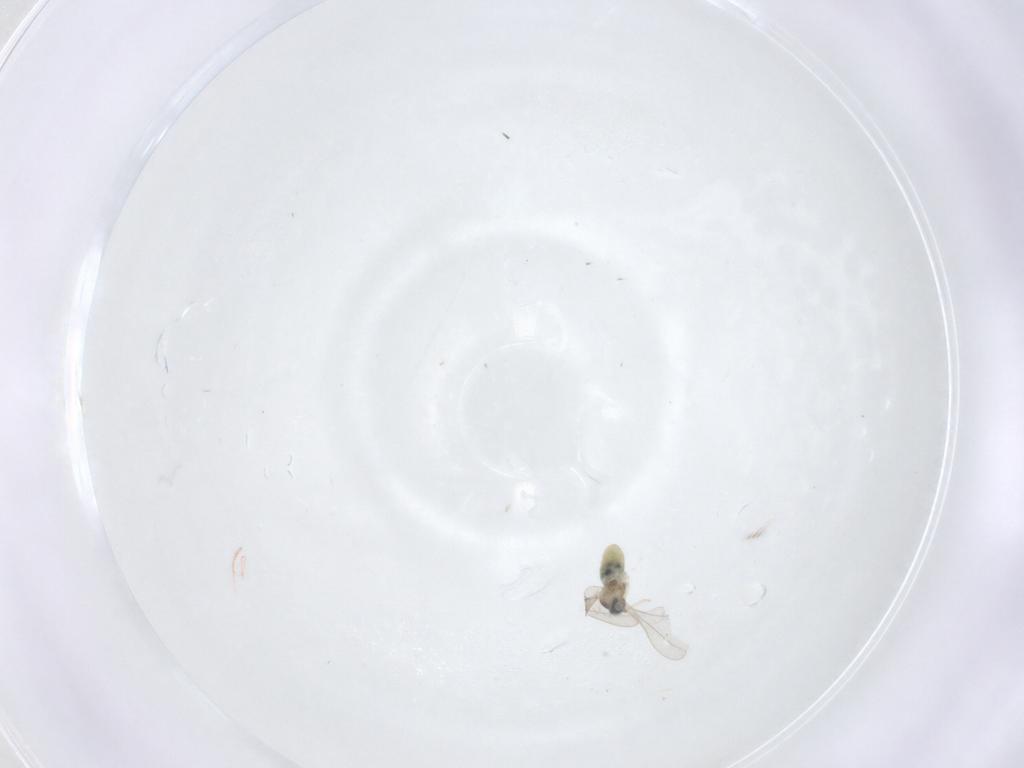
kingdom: Animalia
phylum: Arthropoda
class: Insecta
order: Diptera
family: Cecidomyiidae
